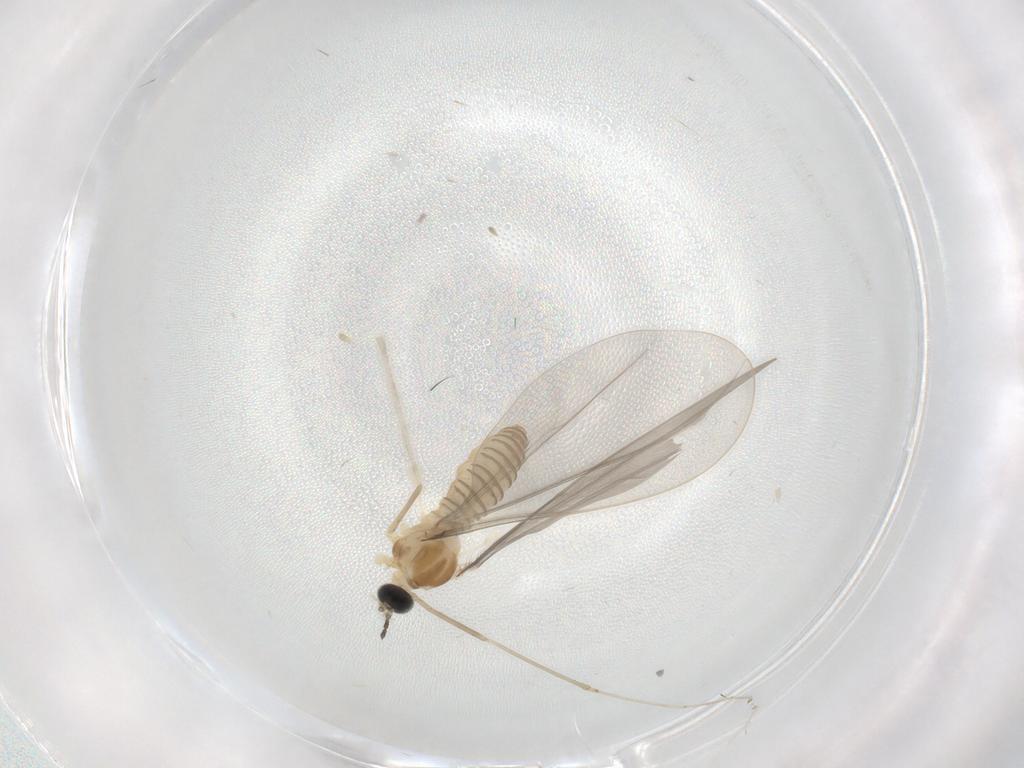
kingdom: Animalia
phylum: Arthropoda
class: Insecta
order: Diptera
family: Cecidomyiidae
